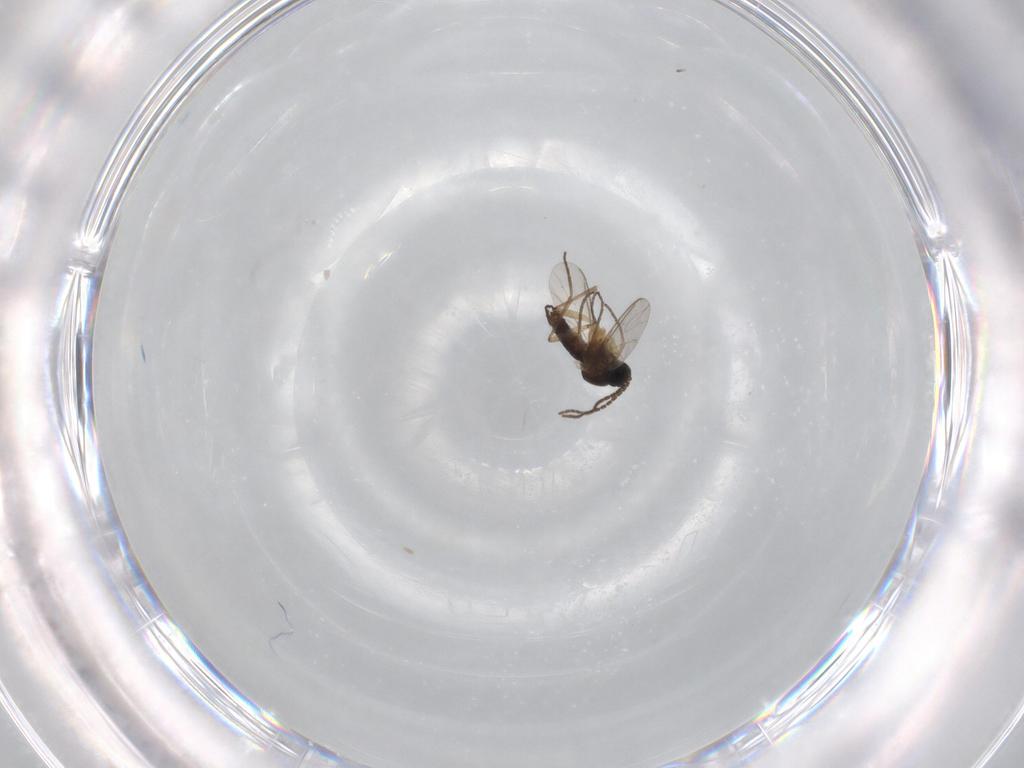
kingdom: Animalia
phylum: Arthropoda
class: Insecta
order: Diptera
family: Sciaridae
